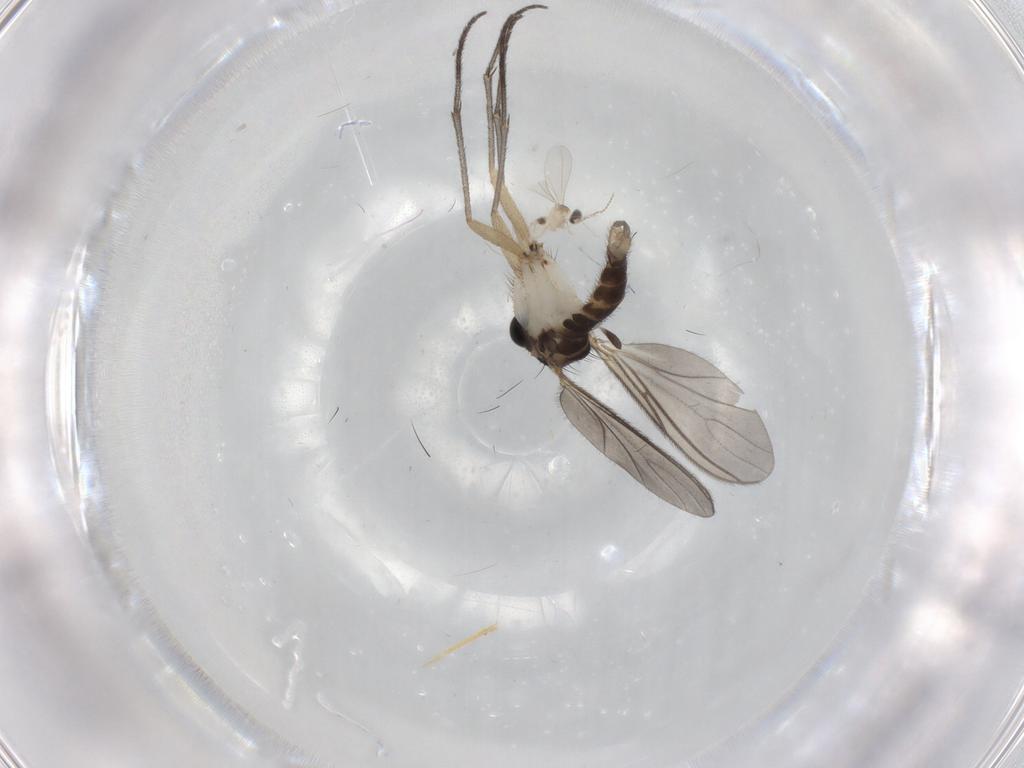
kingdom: Animalia
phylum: Arthropoda
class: Insecta
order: Diptera
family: Sciaridae
